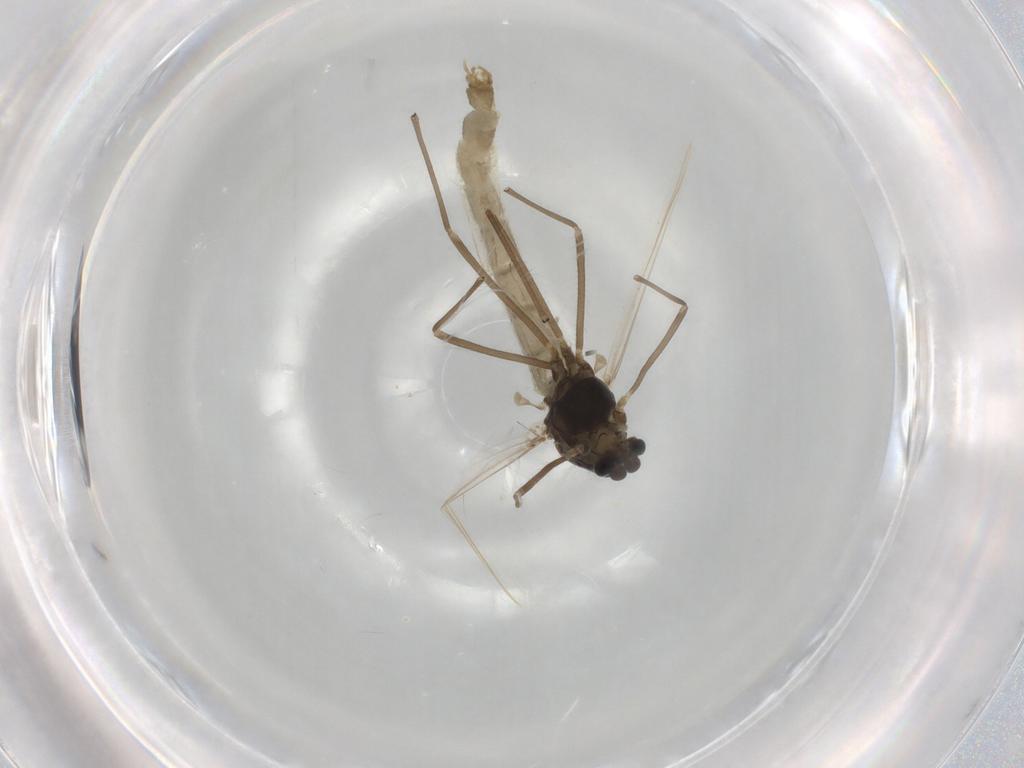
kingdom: Animalia
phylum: Arthropoda
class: Insecta
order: Diptera
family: Chironomidae
